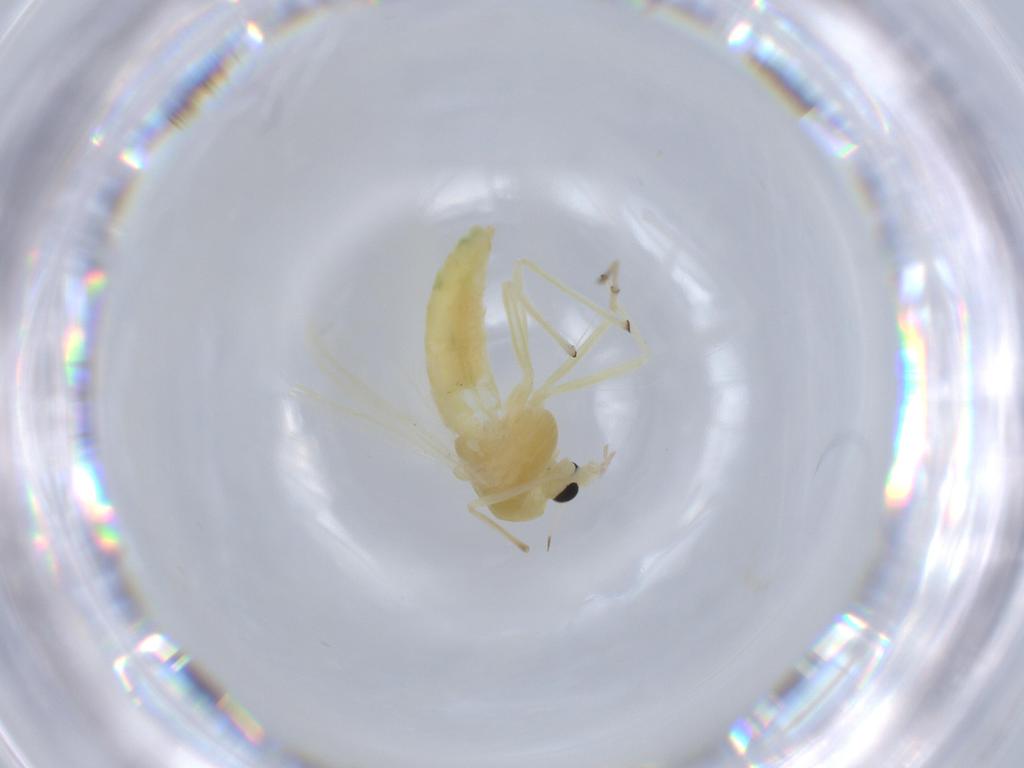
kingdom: Animalia
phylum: Arthropoda
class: Insecta
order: Diptera
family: Chironomidae
